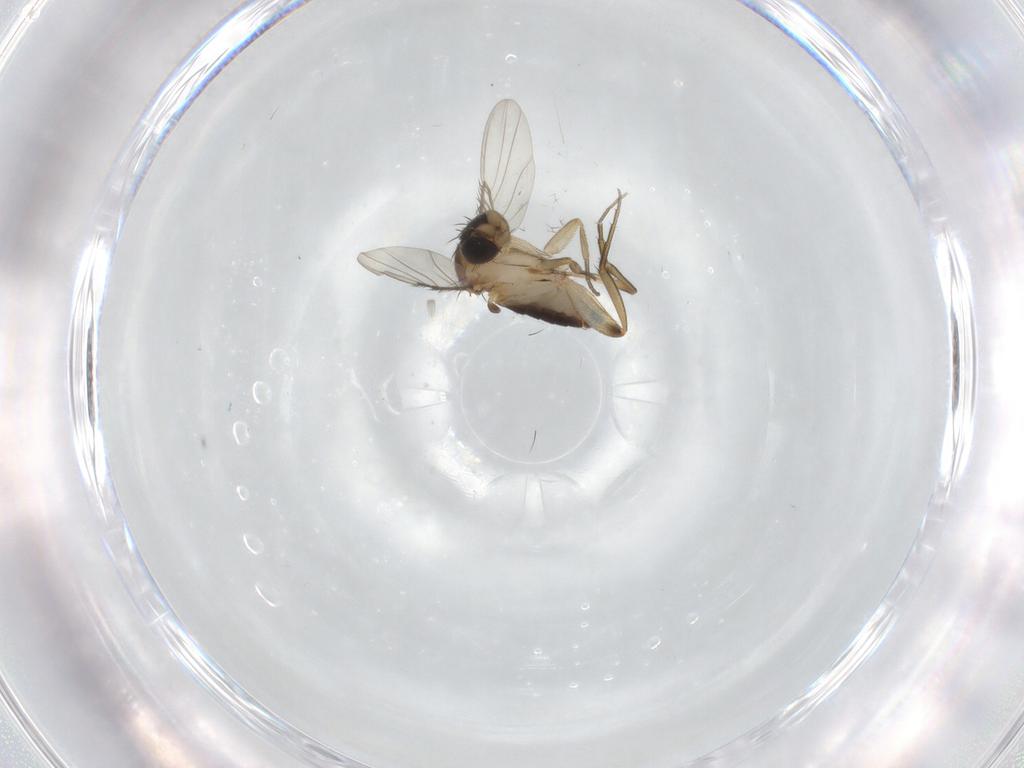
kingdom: Animalia
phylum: Arthropoda
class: Insecta
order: Diptera
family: Phoridae
